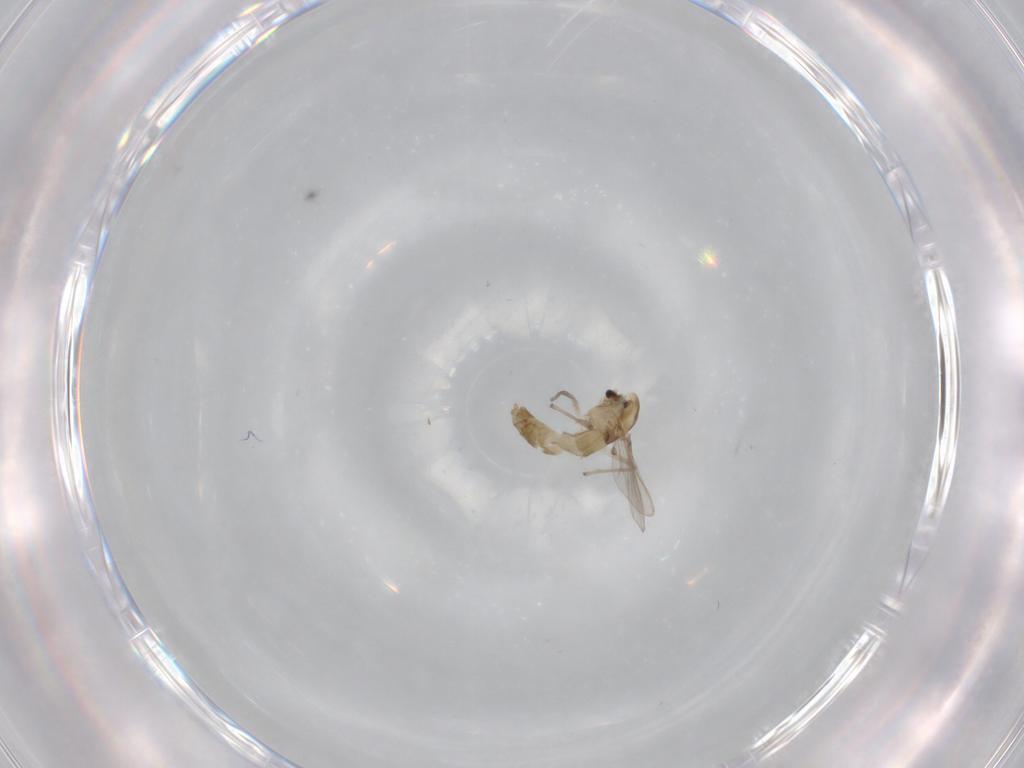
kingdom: Animalia
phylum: Arthropoda
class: Insecta
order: Diptera
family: Chironomidae
